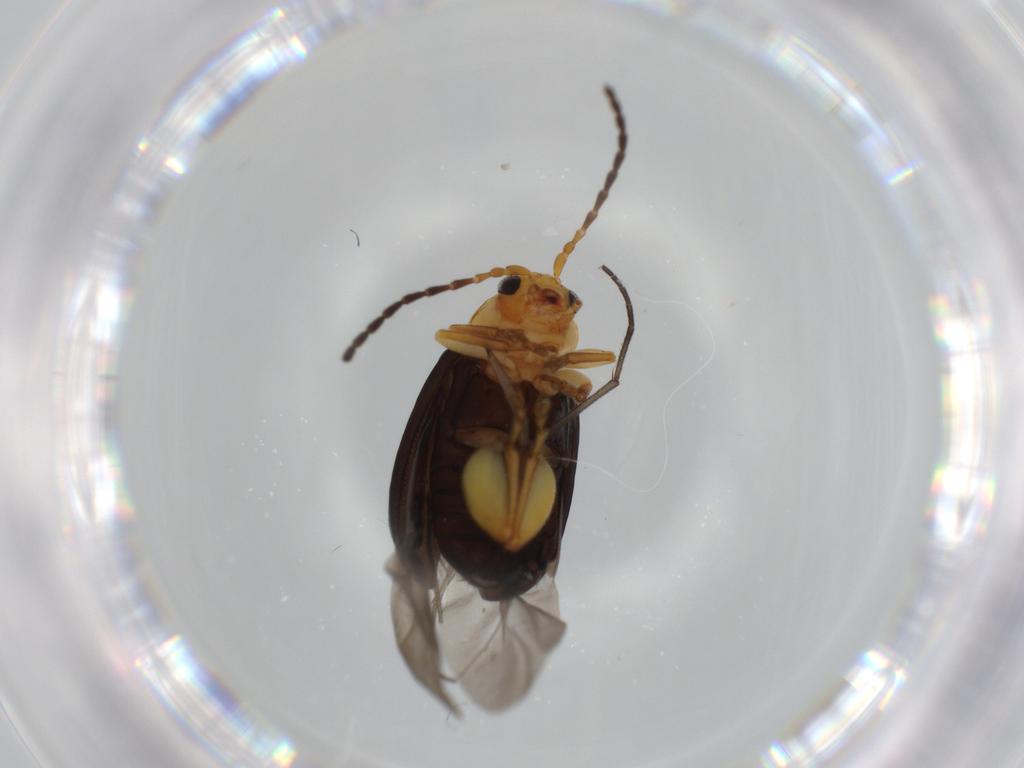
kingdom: Animalia
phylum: Arthropoda
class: Insecta
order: Coleoptera
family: Chrysomelidae
